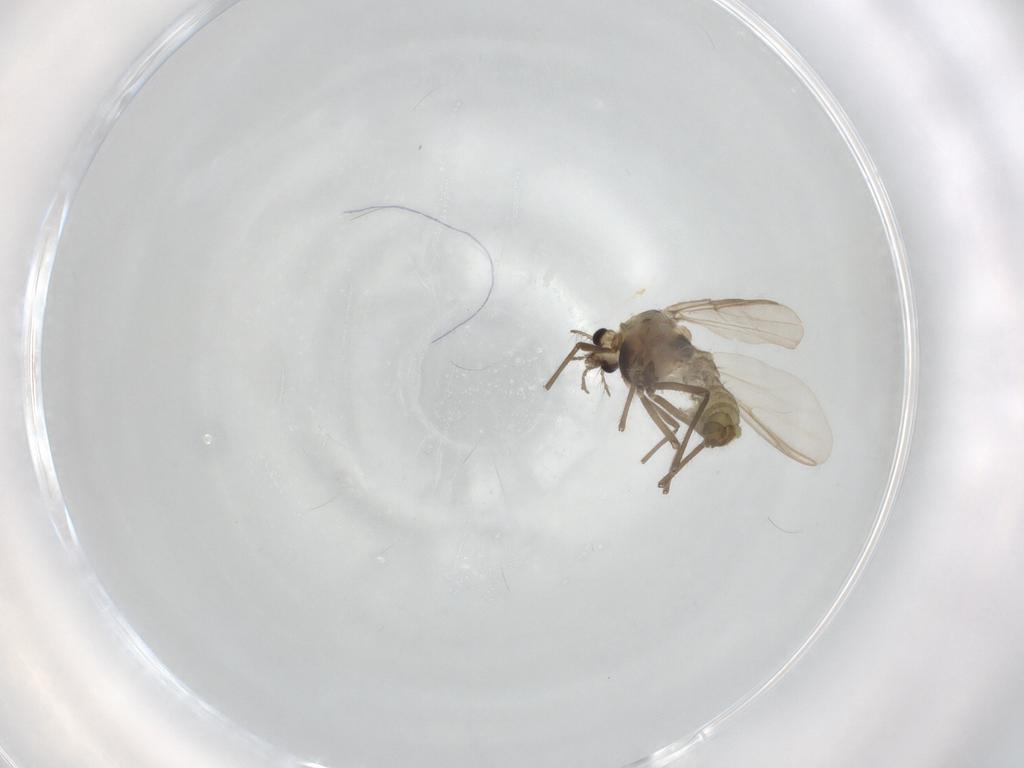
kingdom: Animalia
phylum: Arthropoda
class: Insecta
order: Diptera
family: Chironomidae
